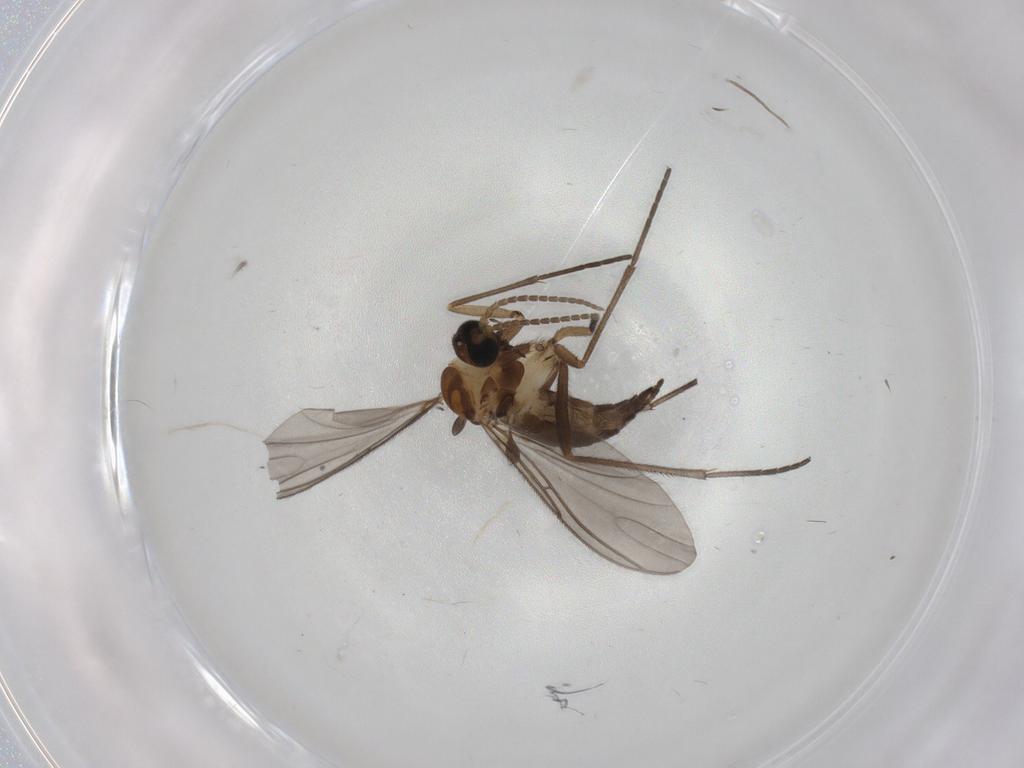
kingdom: Animalia
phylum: Arthropoda
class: Insecta
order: Diptera
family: Sciaridae
